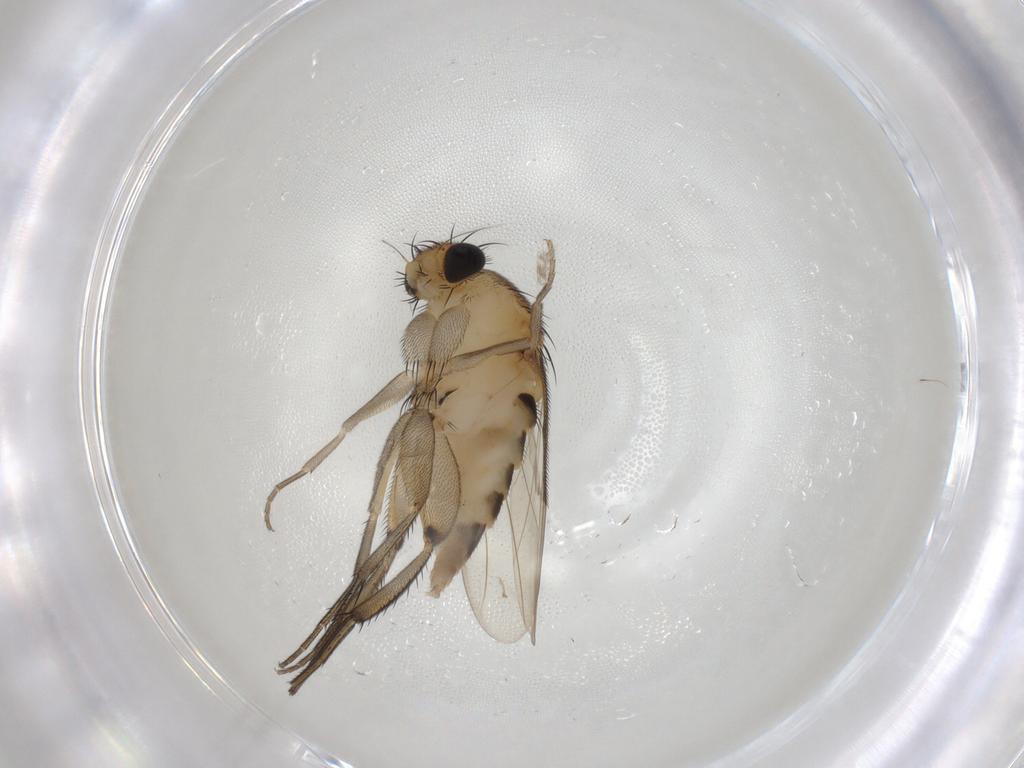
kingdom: Animalia
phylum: Arthropoda
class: Insecta
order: Diptera
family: Phoridae
